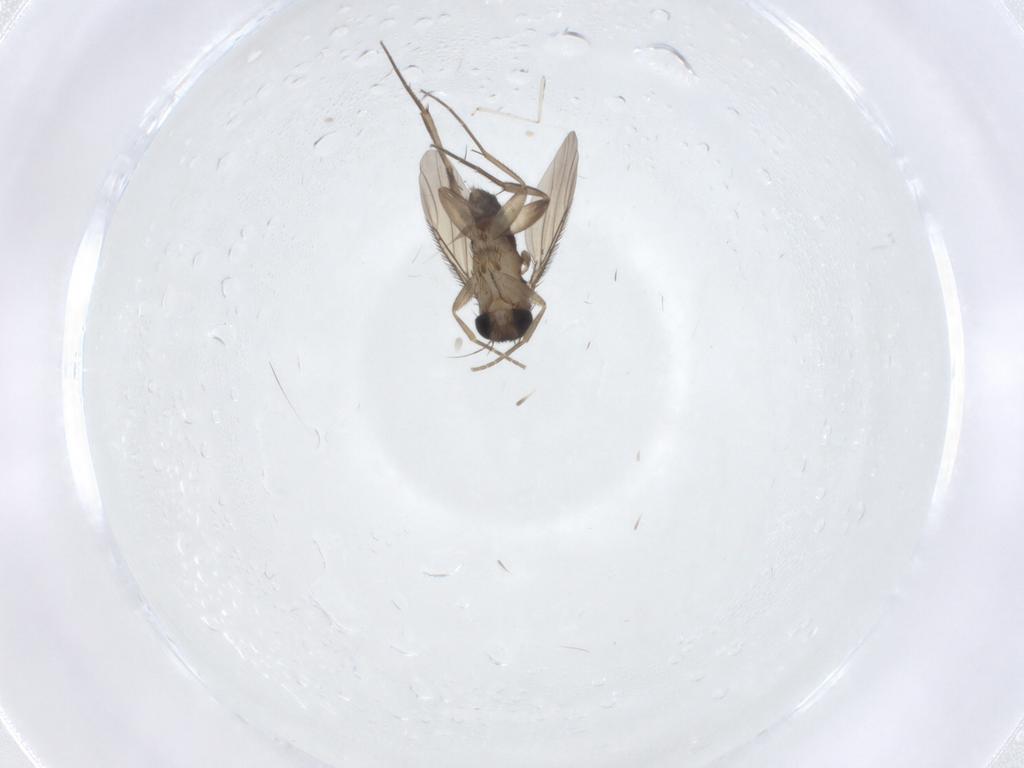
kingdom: Animalia
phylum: Arthropoda
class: Insecta
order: Diptera
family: Phoridae
